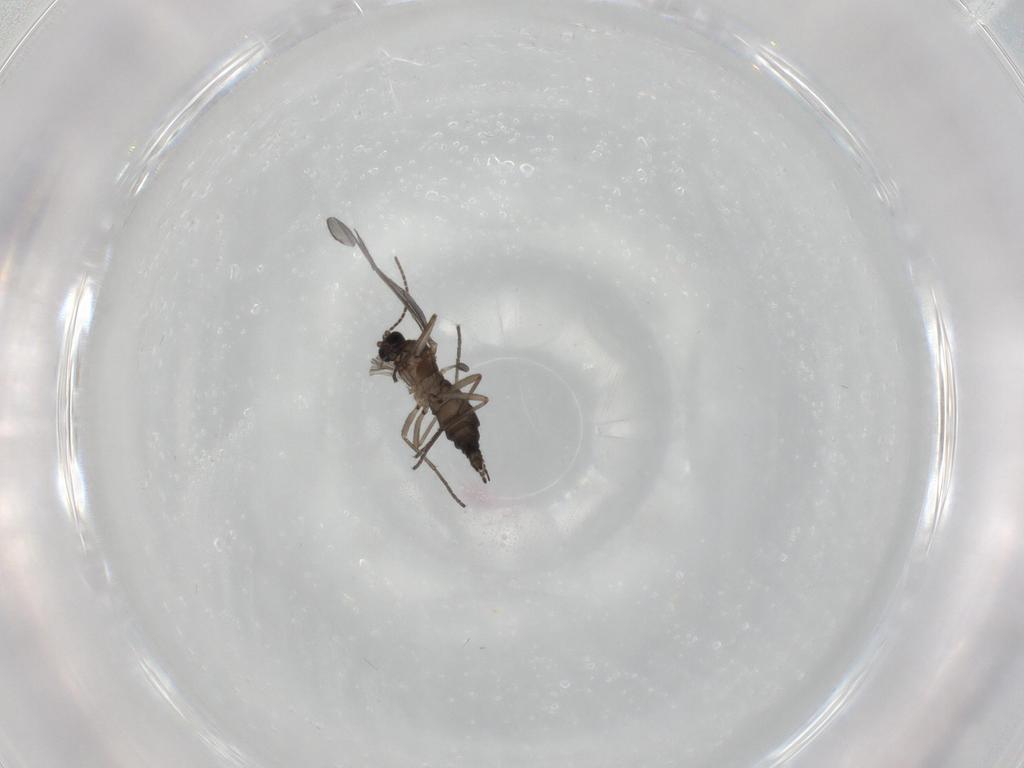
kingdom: Animalia
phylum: Arthropoda
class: Insecta
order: Diptera
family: Sciaridae
